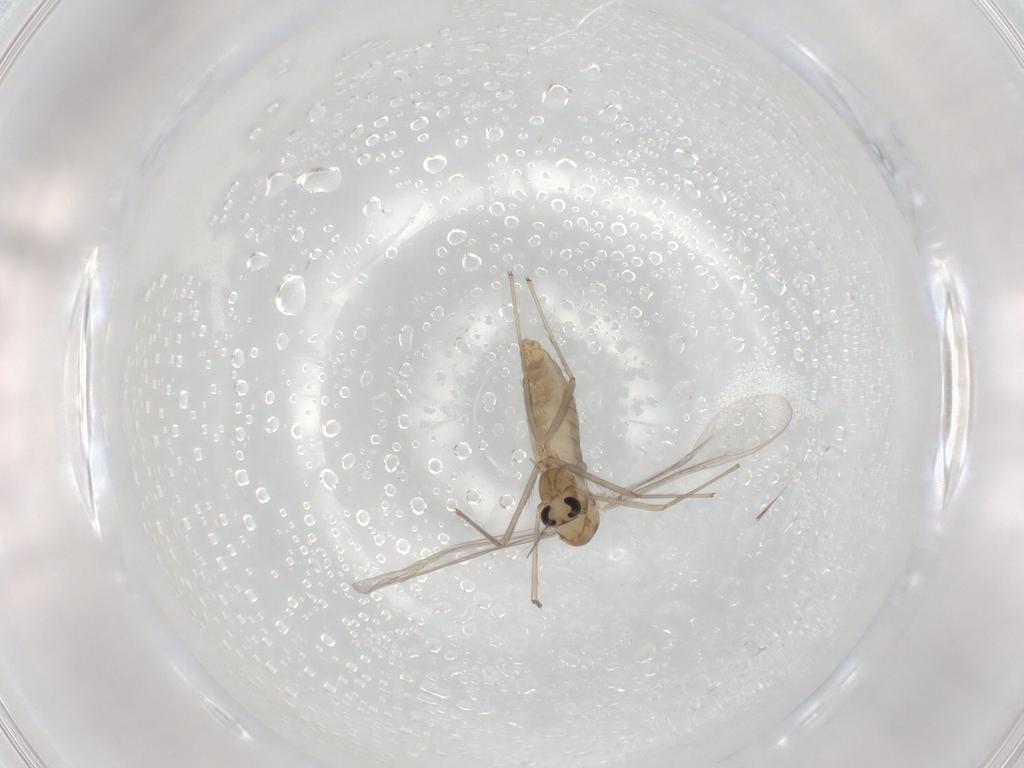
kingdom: Animalia
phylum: Arthropoda
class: Insecta
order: Diptera
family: Chironomidae
